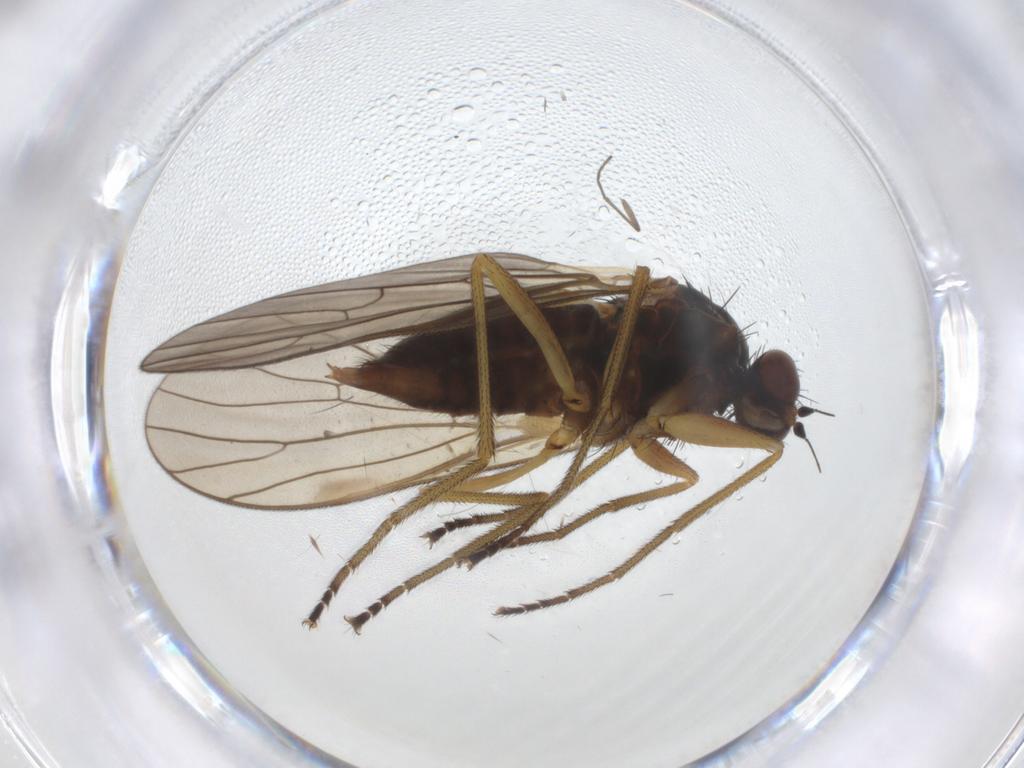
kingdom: Animalia
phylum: Arthropoda
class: Insecta
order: Diptera
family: Brachystomatidae
